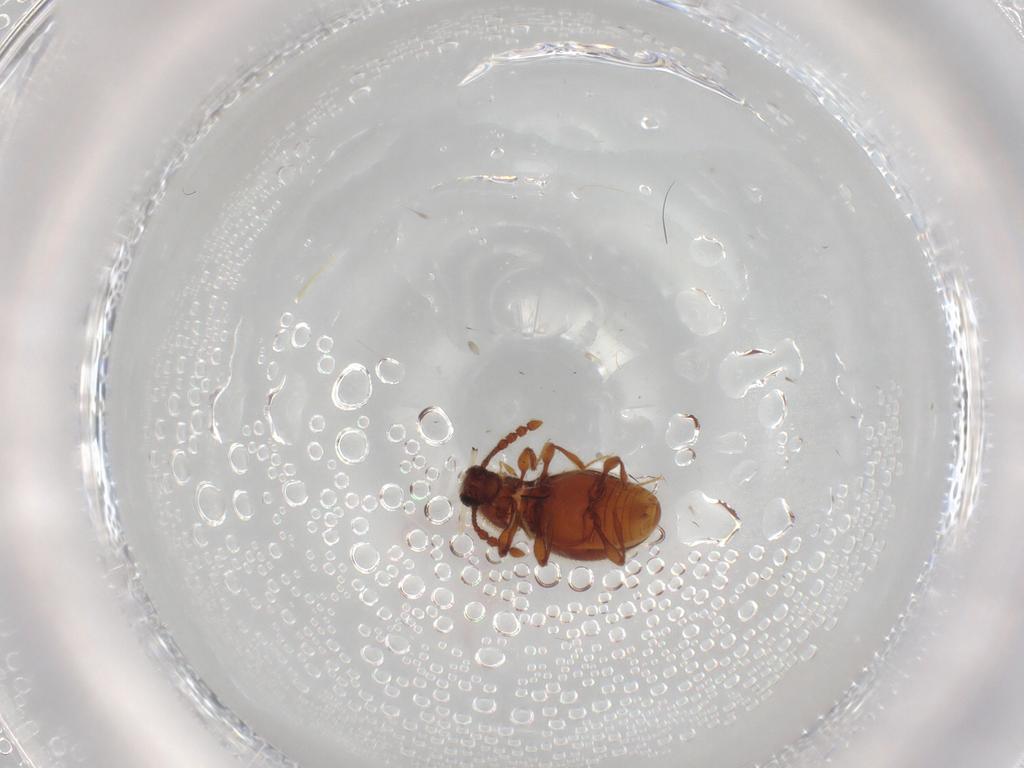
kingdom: Animalia
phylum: Arthropoda
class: Insecta
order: Coleoptera
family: Staphylinidae
